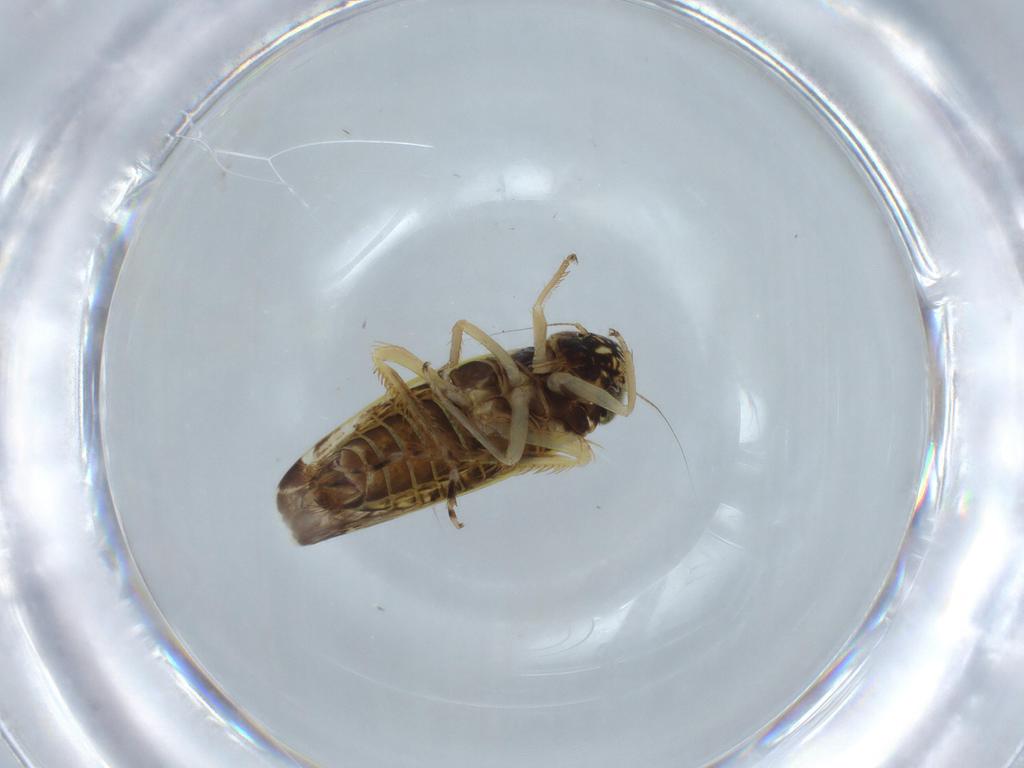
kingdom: Animalia
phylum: Arthropoda
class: Insecta
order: Hemiptera
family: Cicadellidae
